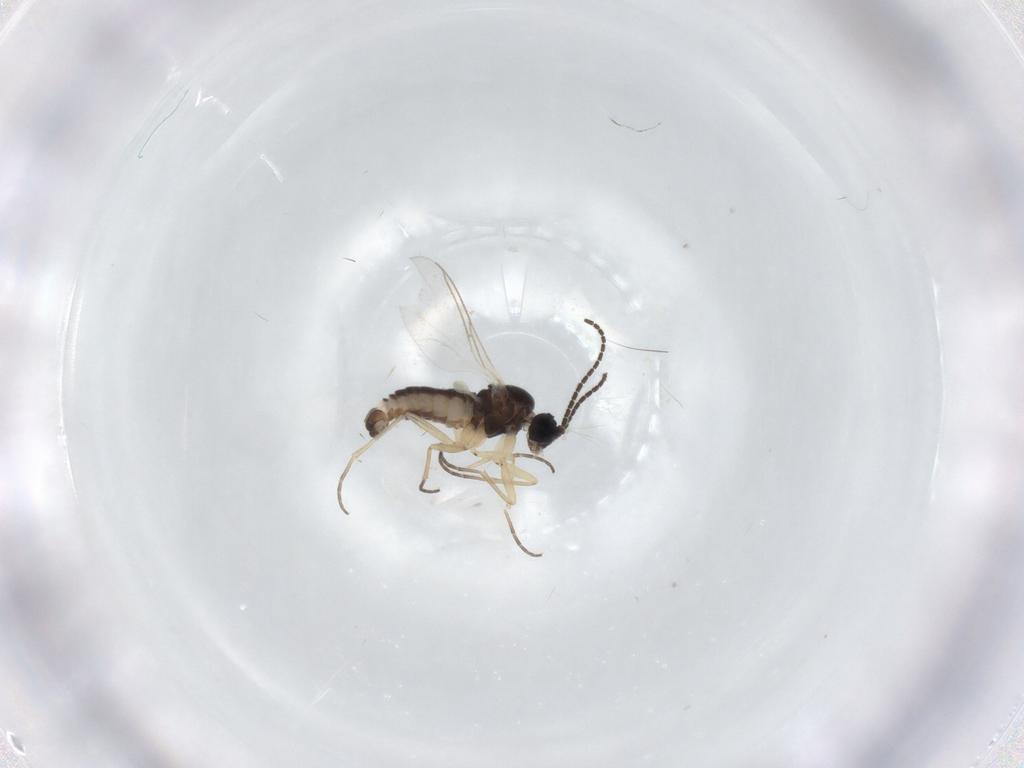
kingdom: Animalia
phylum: Arthropoda
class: Insecta
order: Diptera
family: Sciaridae
